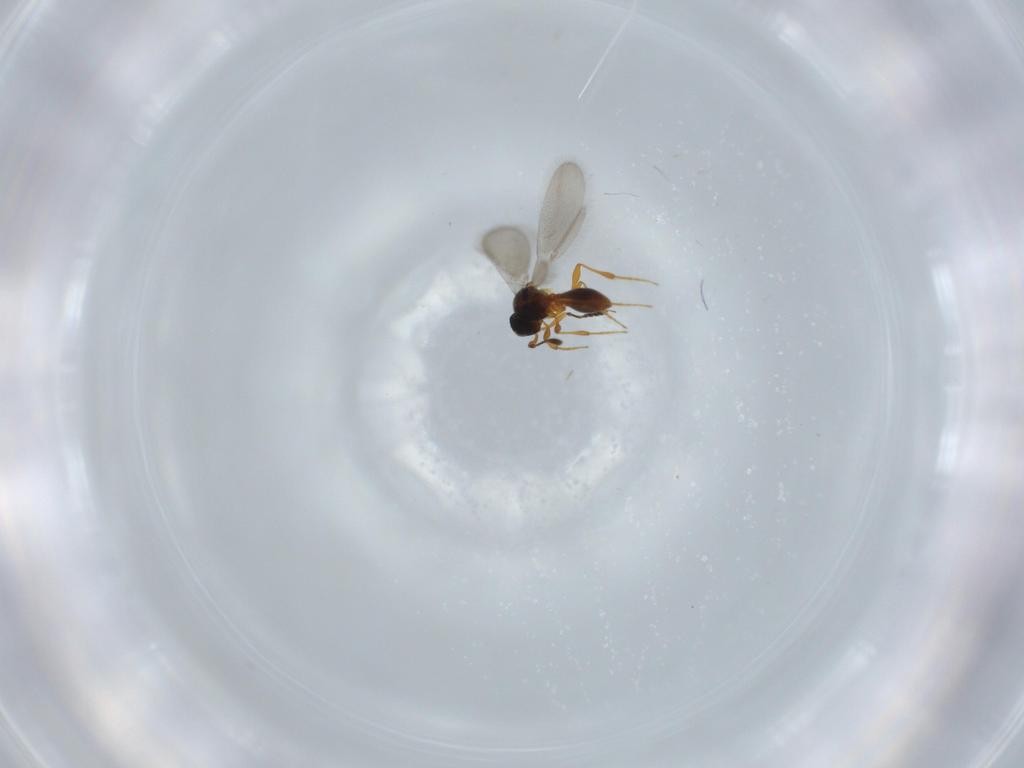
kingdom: Animalia
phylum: Arthropoda
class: Insecta
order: Hymenoptera
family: Platygastridae
